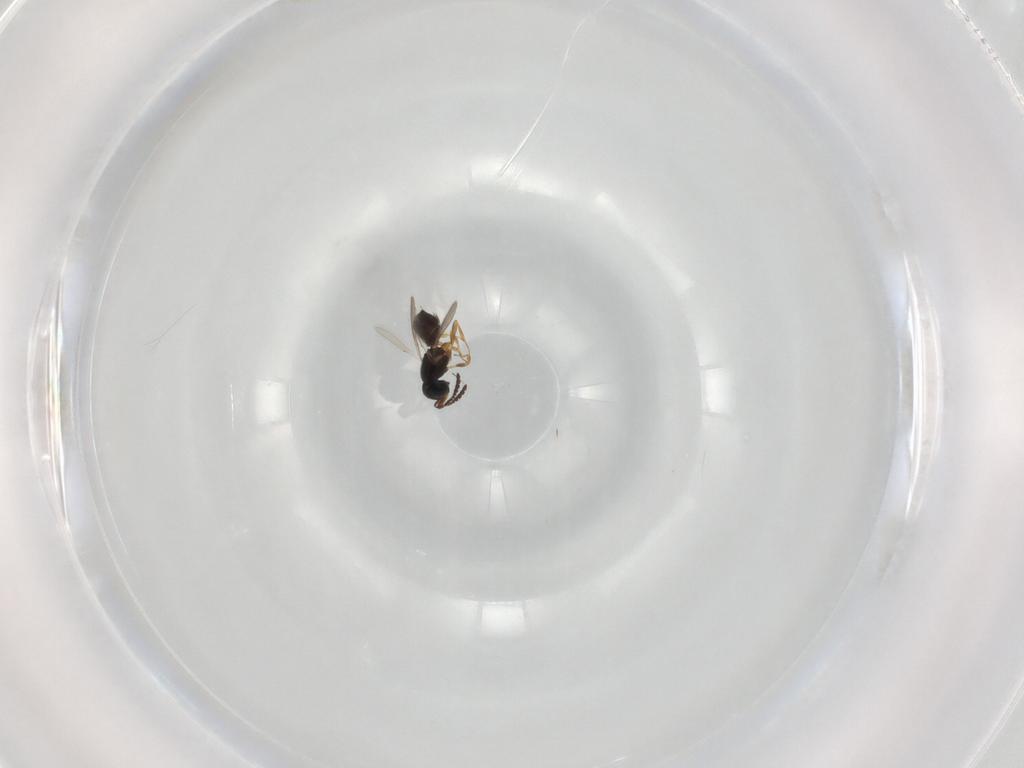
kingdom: Animalia
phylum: Arthropoda
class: Insecta
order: Hymenoptera
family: Scelionidae
